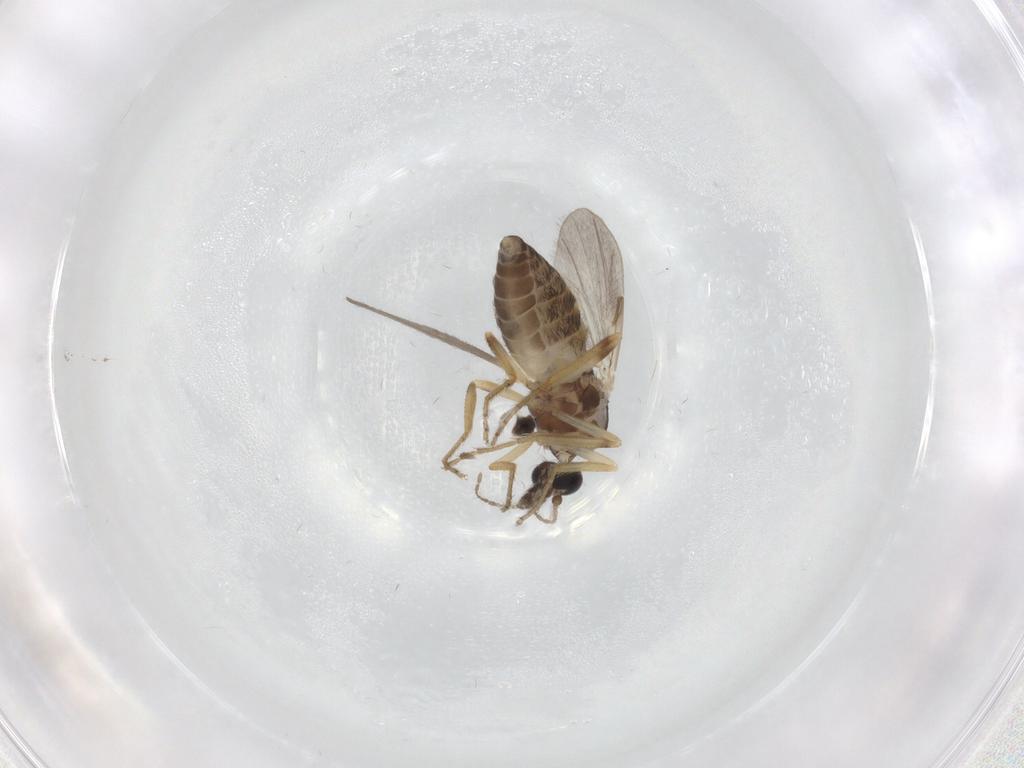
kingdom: Animalia
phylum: Arthropoda
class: Insecta
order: Diptera
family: Ceratopogonidae
